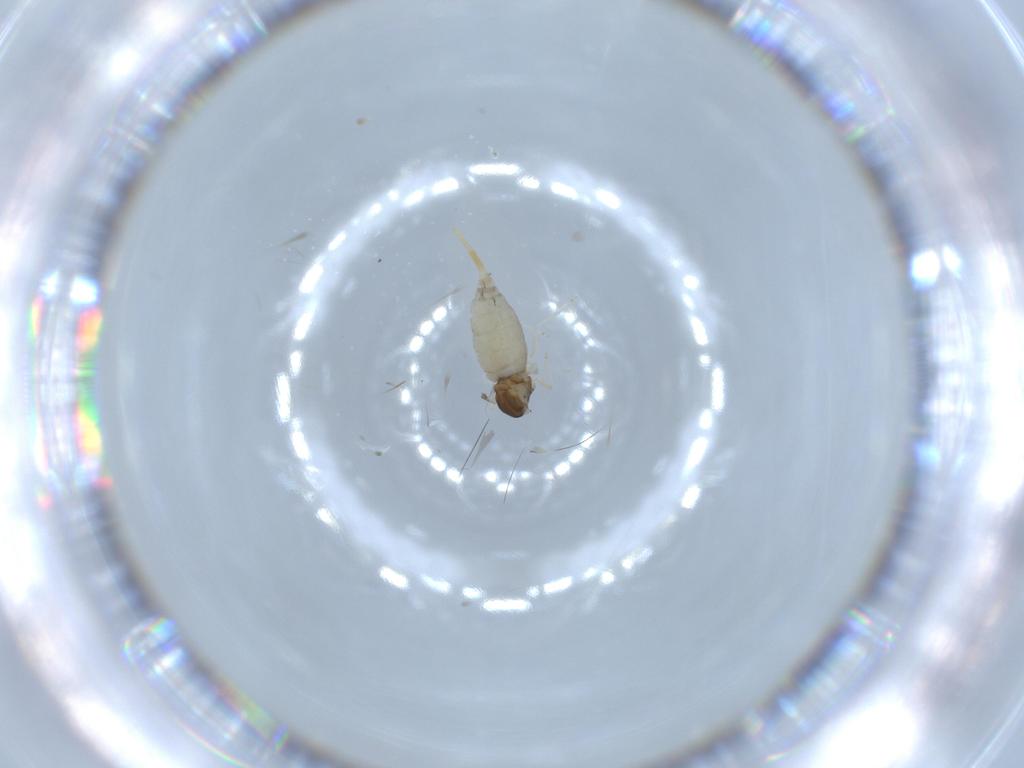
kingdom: Animalia
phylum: Arthropoda
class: Insecta
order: Diptera
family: Cecidomyiidae
